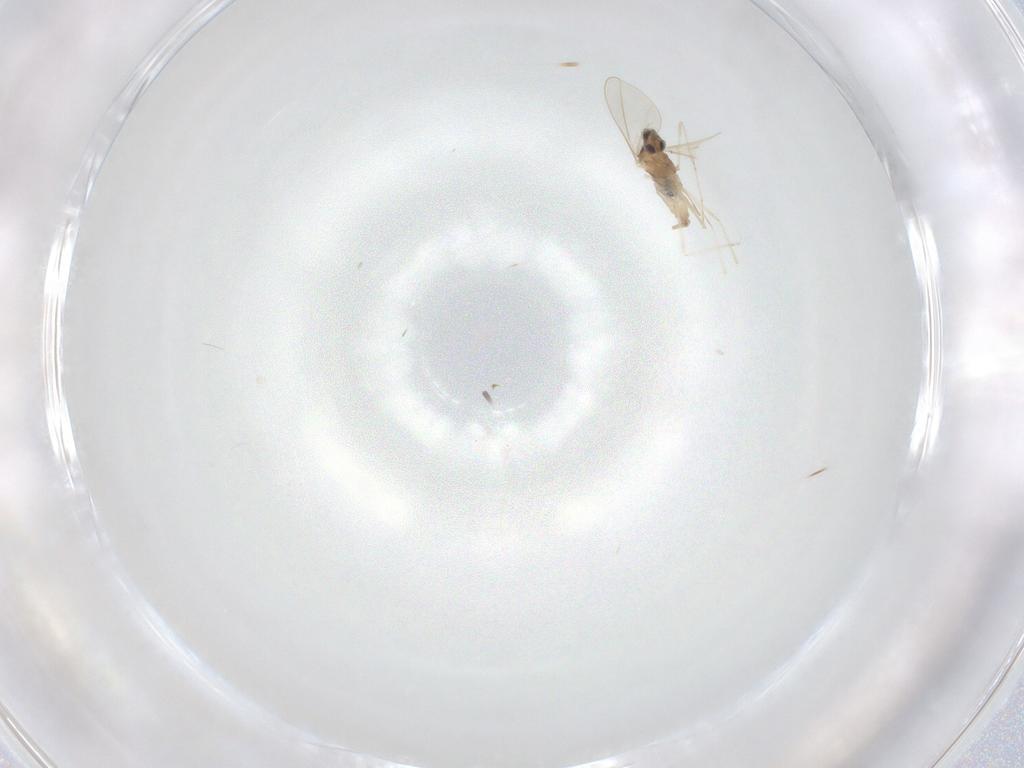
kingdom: Animalia
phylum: Arthropoda
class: Insecta
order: Diptera
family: Cecidomyiidae
